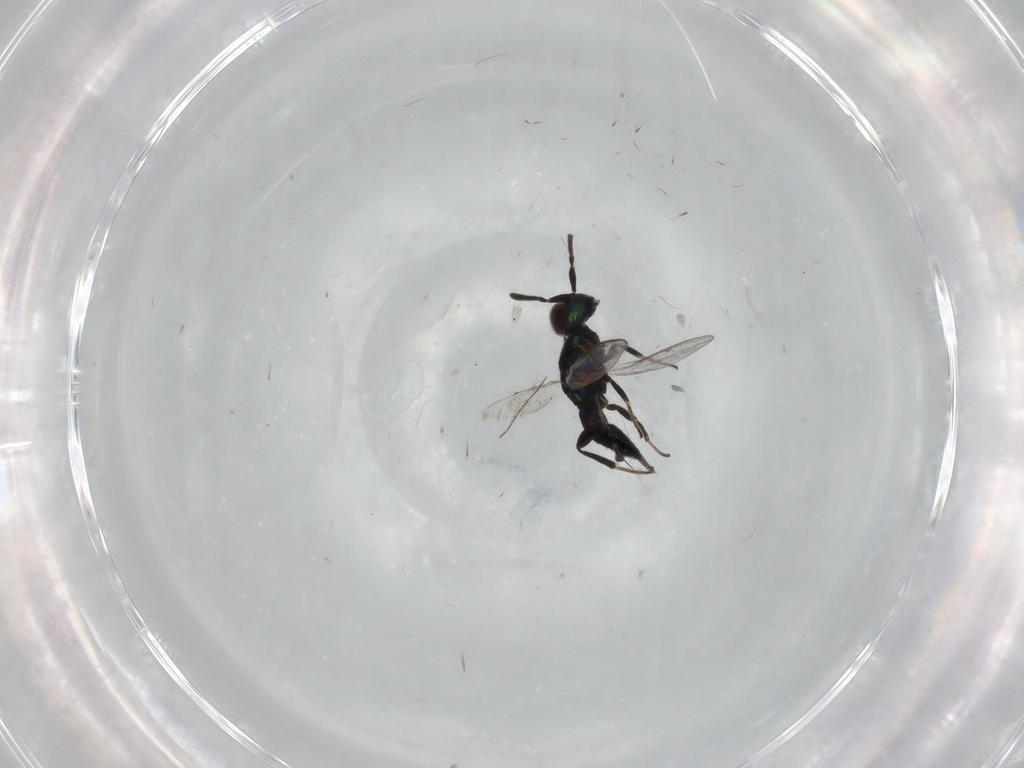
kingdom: Animalia
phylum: Arthropoda
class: Insecta
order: Hymenoptera
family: Eupelmidae
